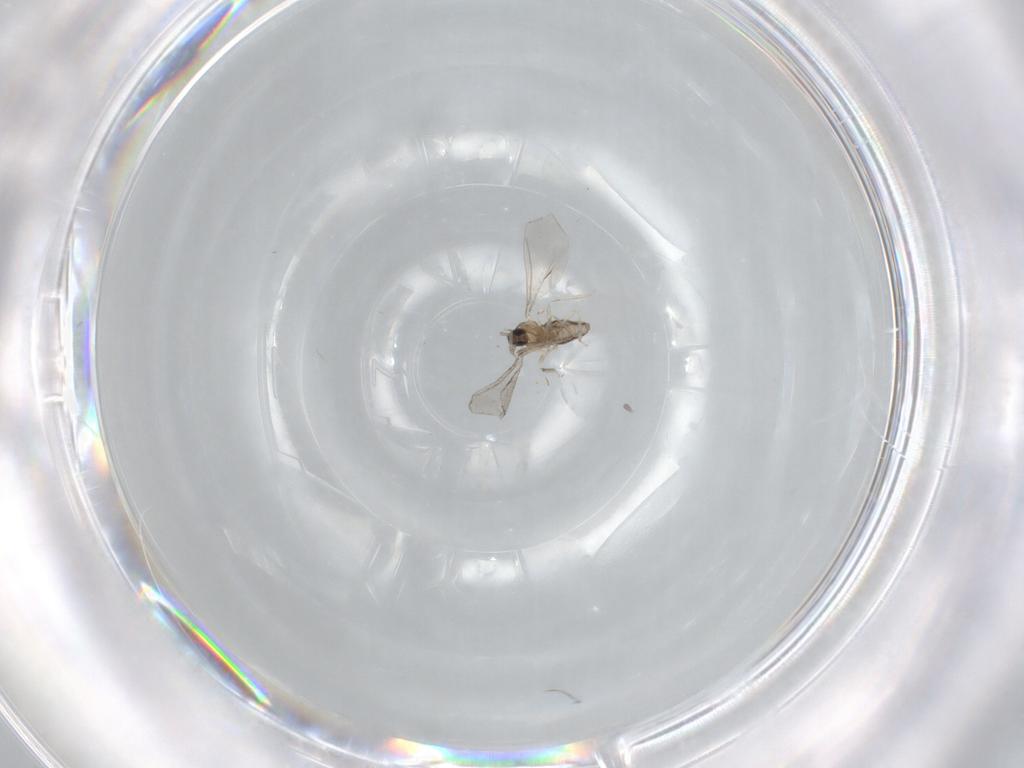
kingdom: Animalia
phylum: Arthropoda
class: Insecta
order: Diptera
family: Cecidomyiidae
